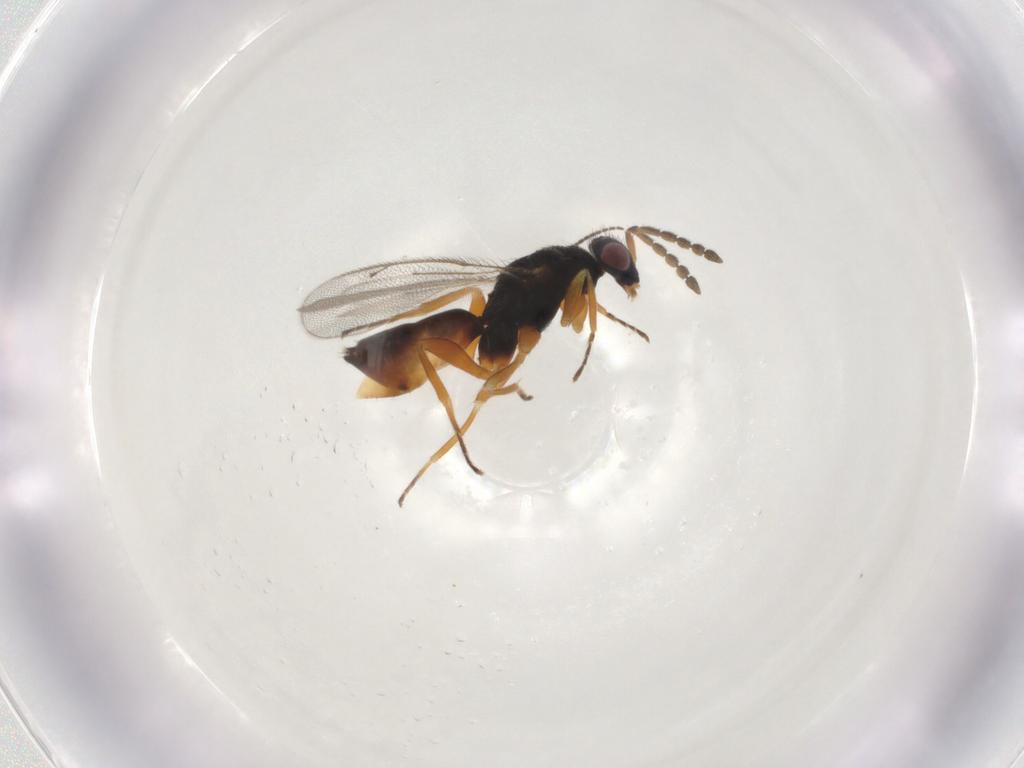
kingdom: Animalia
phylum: Arthropoda
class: Insecta
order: Hymenoptera
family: Eulophidae
